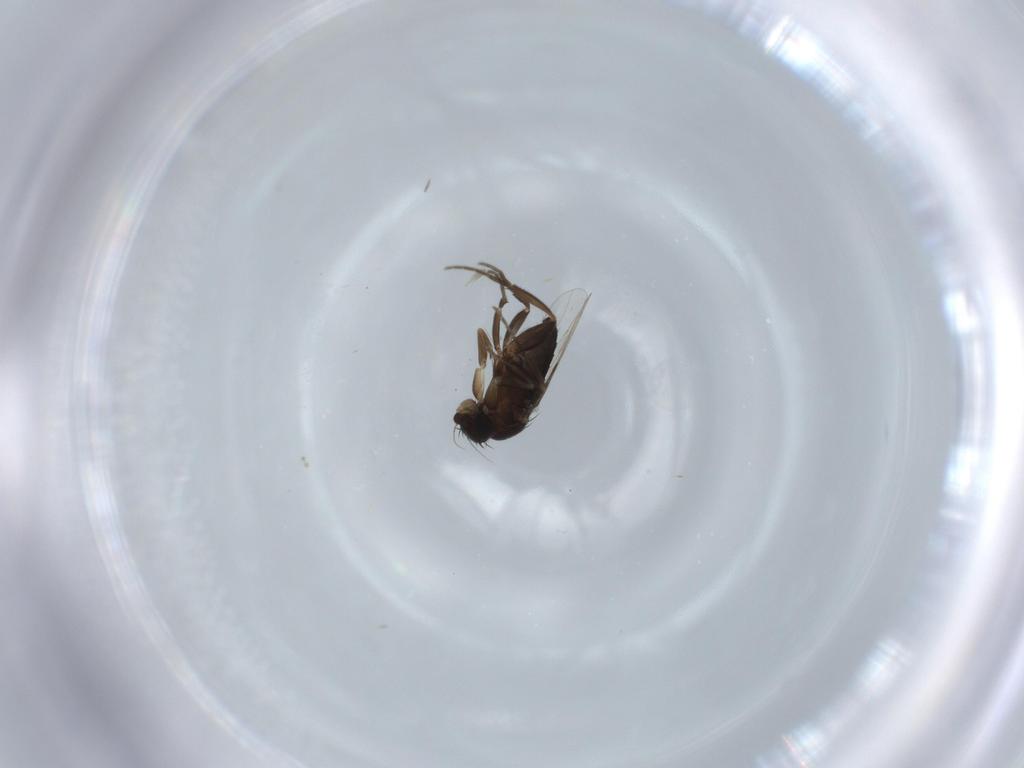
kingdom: Animalia
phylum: Arthropoda
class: Insecta
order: Diptera
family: Phoridae
